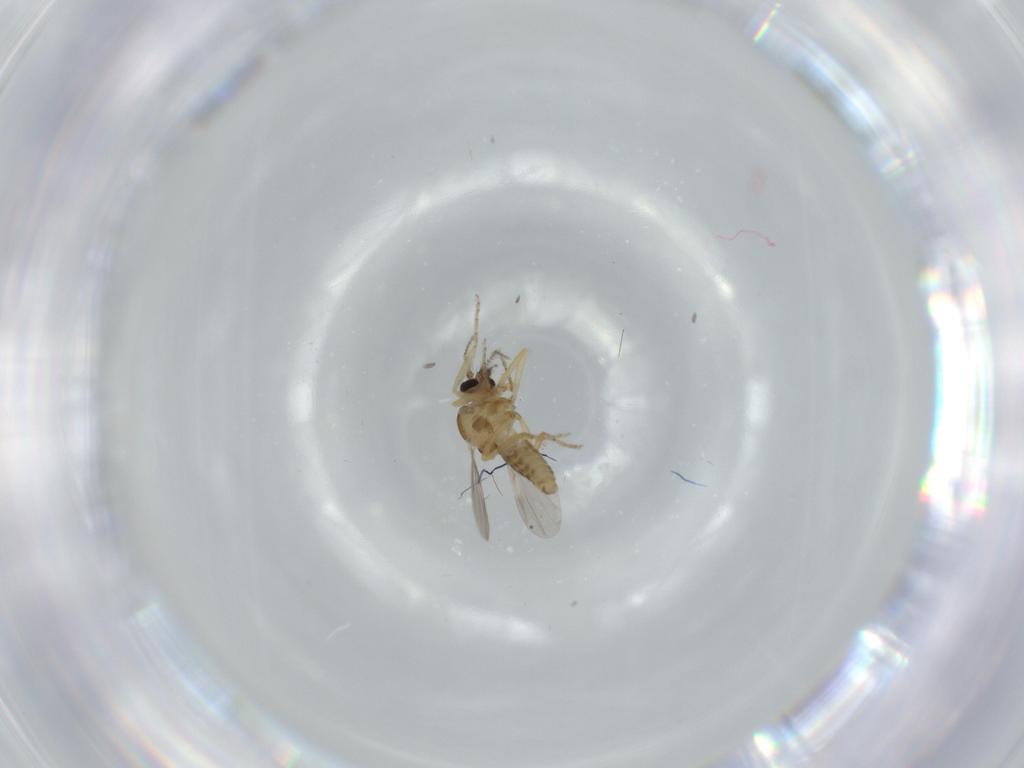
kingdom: Animalia
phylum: Arthropoda
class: Insecta
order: Diptera
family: Ceratopogonidae
